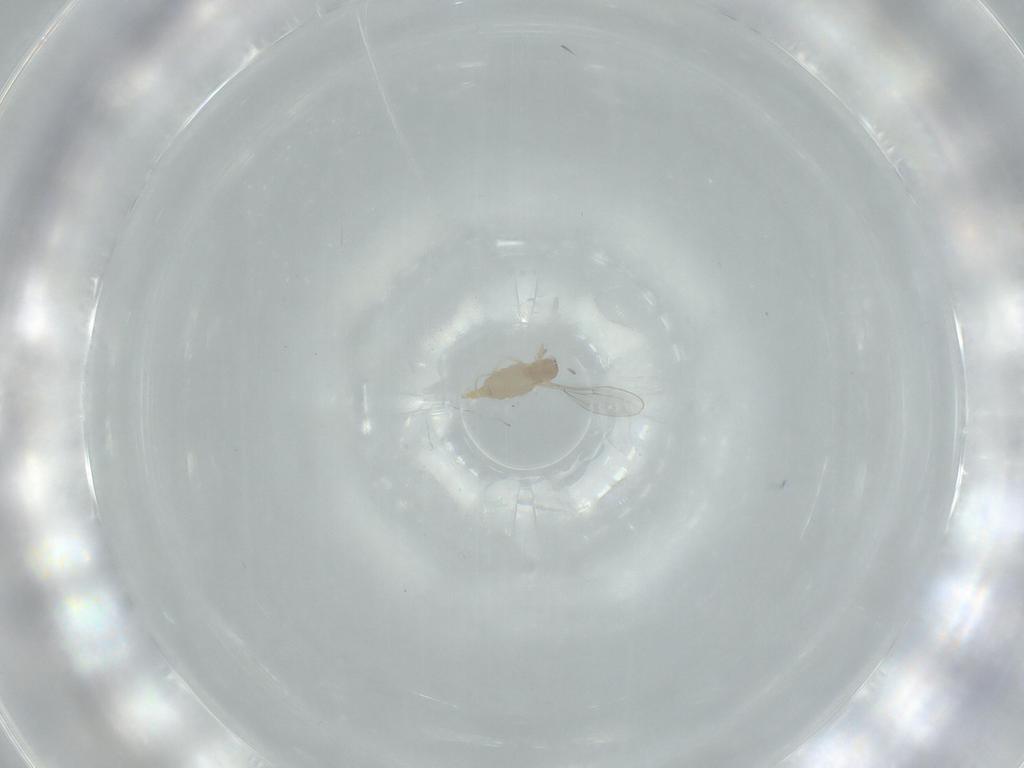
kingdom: Animalia
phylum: Arthropoda
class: Insecta
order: Diptera
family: Cecidomyiidae
